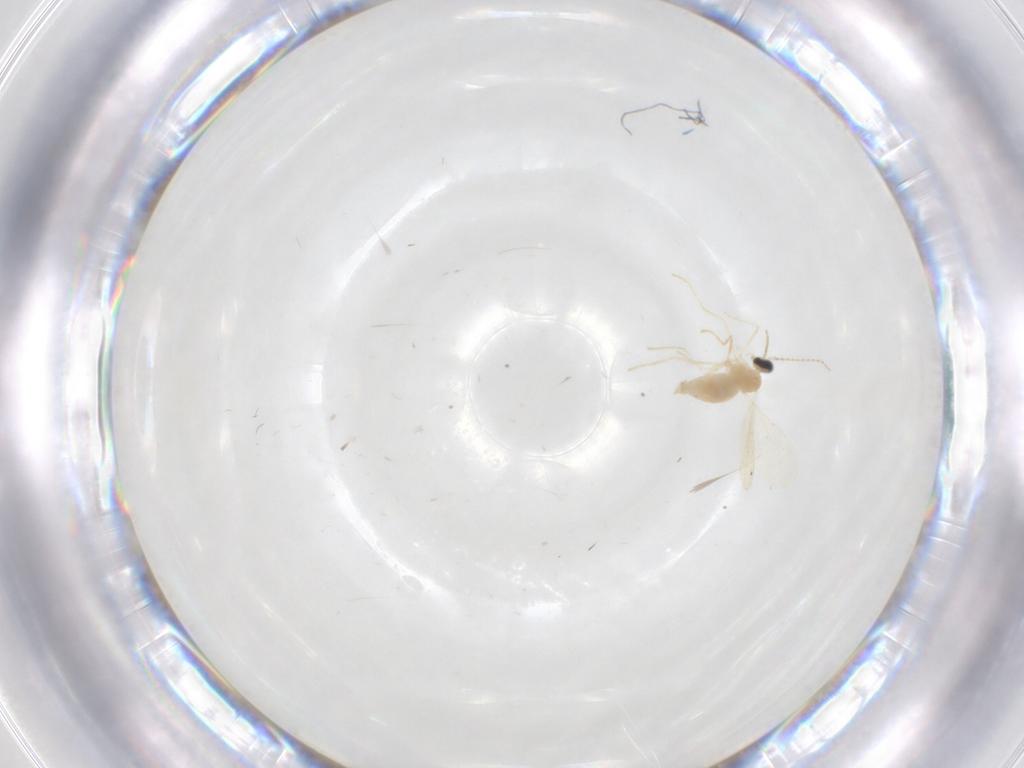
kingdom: Animalia
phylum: Arthropoda
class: Insecta
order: Diptera
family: Cecidomyiidae
